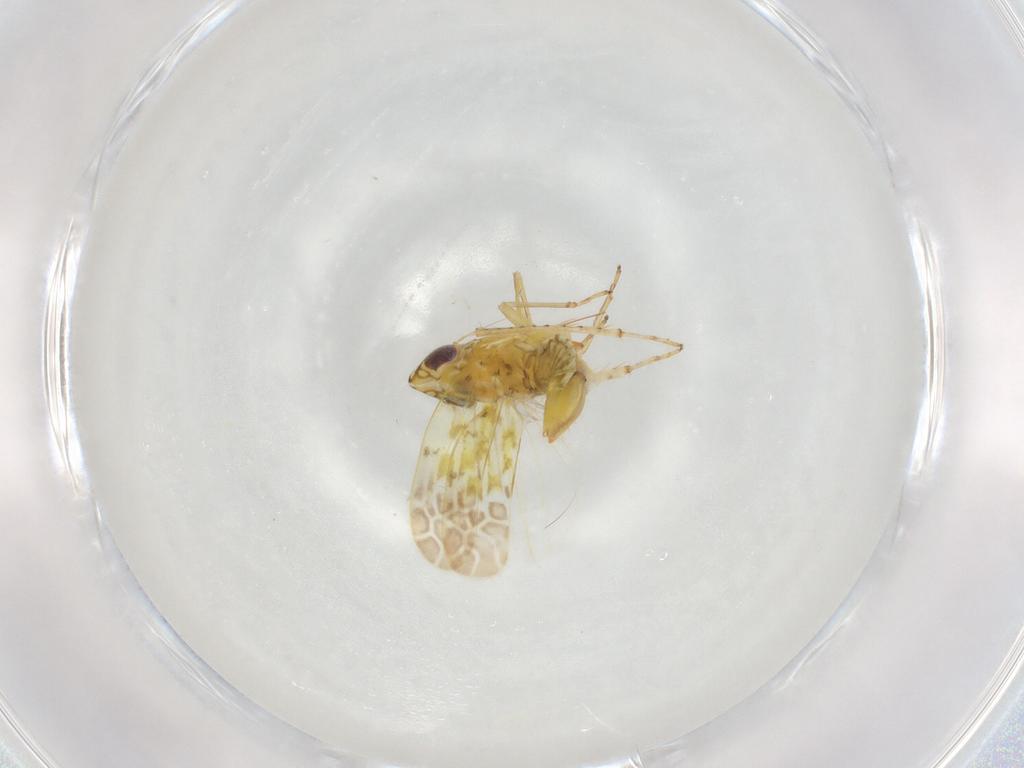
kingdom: Animalia
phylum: Arthropoda
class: Insecta
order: Hemiptera
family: Cicadellidae
